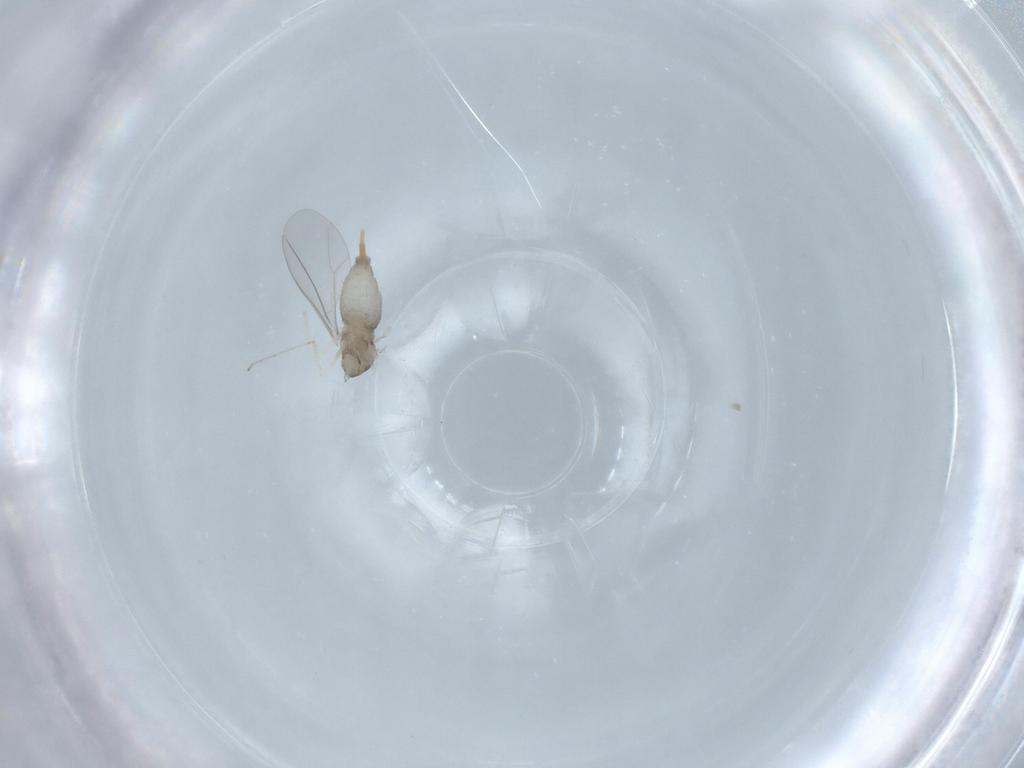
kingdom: Animalia
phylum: Arthropoda
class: Insecta
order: Diptera
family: Cecidomyiidae
